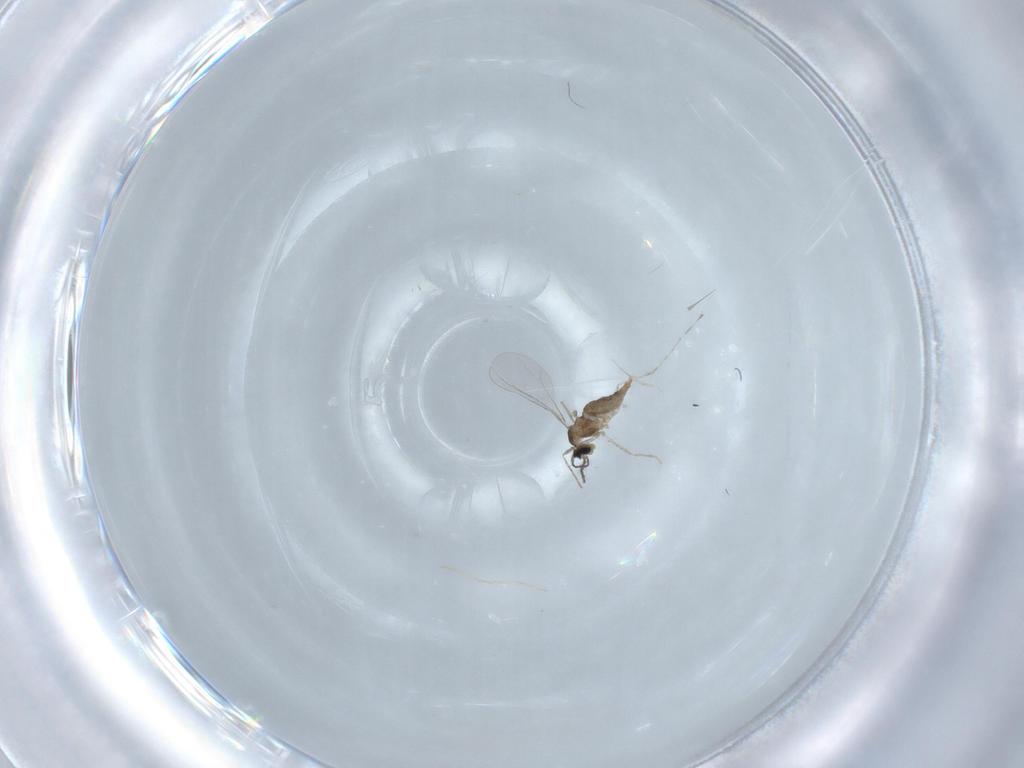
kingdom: Animalia
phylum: Arthropoda
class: Insecta
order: Diptera
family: Cecidomyiidae
